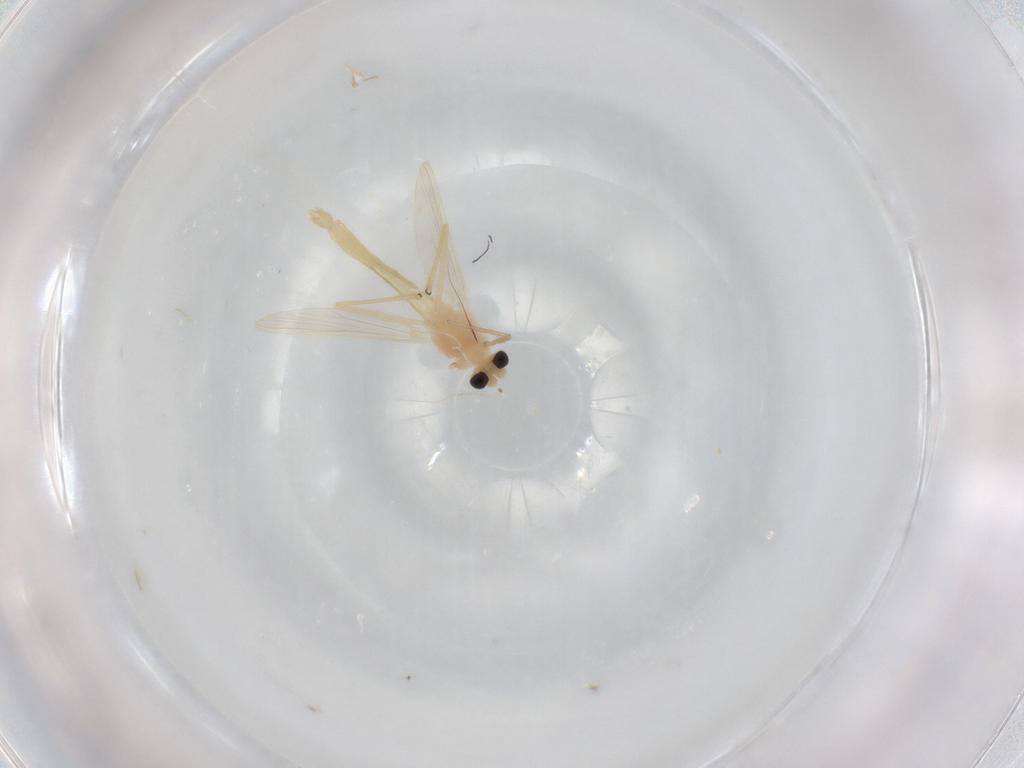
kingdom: Animalia
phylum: Arthropoda
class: Insecta
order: Diptera
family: Chironomidae
